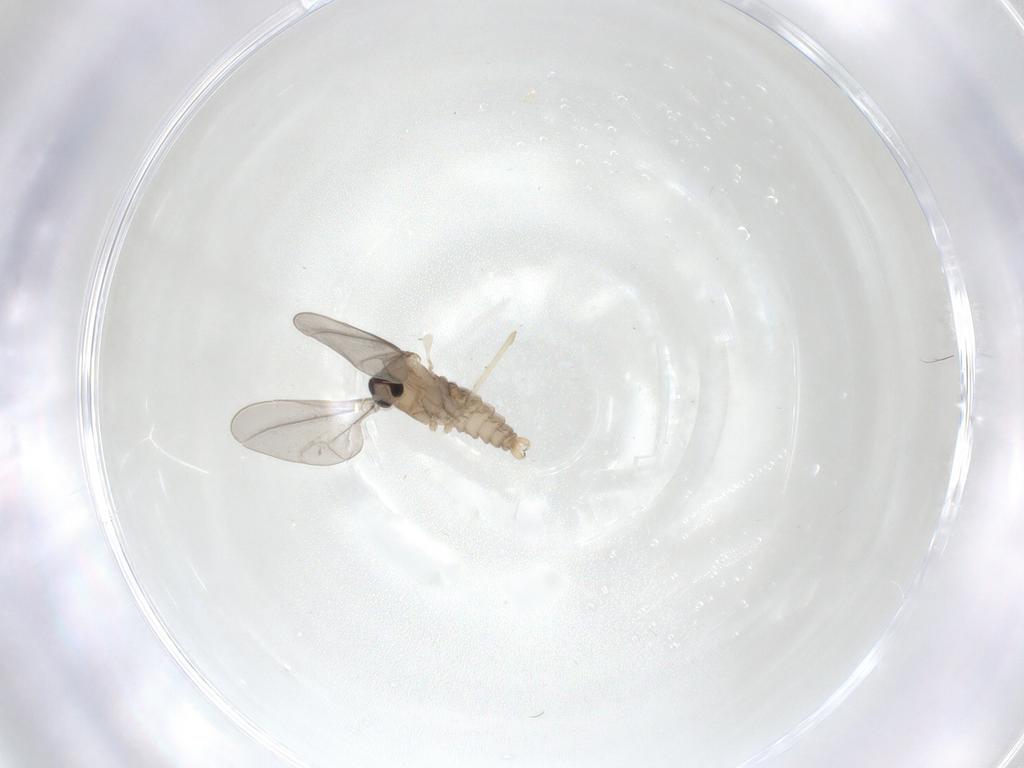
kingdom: Animalia
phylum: Arthropoda
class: Insecta
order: Diptera
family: Cecidomyiidae
